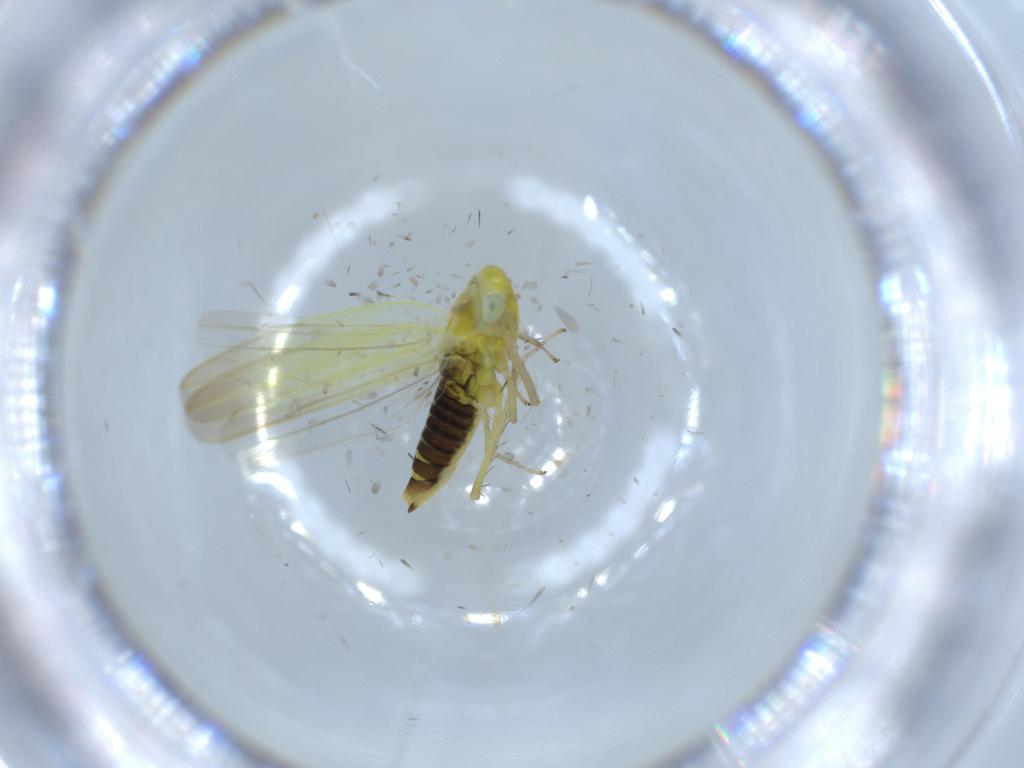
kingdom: Animalia
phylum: Arthropoda
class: Insecta
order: Hemiptera
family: Cicadellidae
